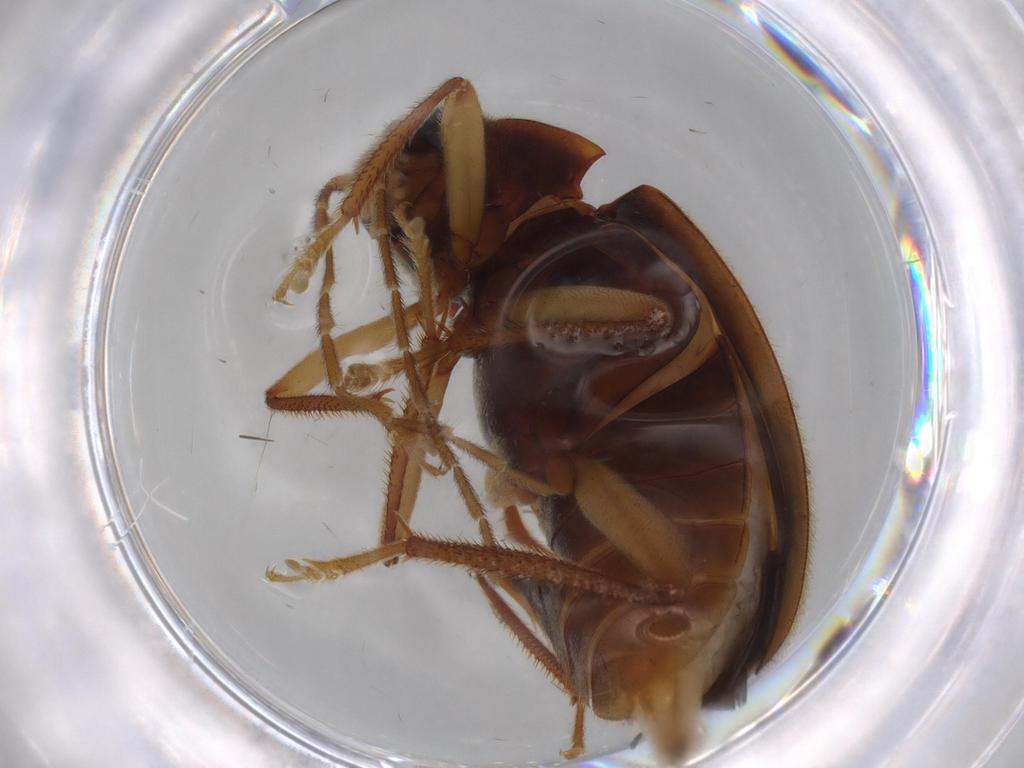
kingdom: Animalia
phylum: Arthropoda
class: Insecta
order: Coleoptera
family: Ptilodactylidae
